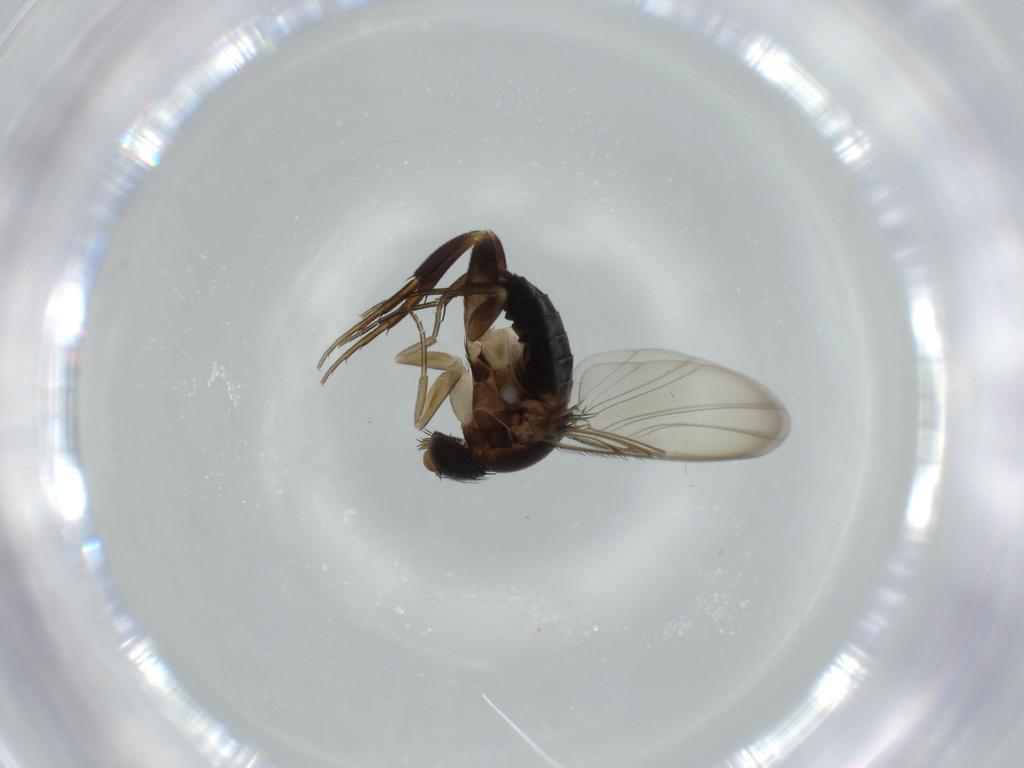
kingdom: Animalia
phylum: Arthropoda
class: Insecta
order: Diptera
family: Phoridae
